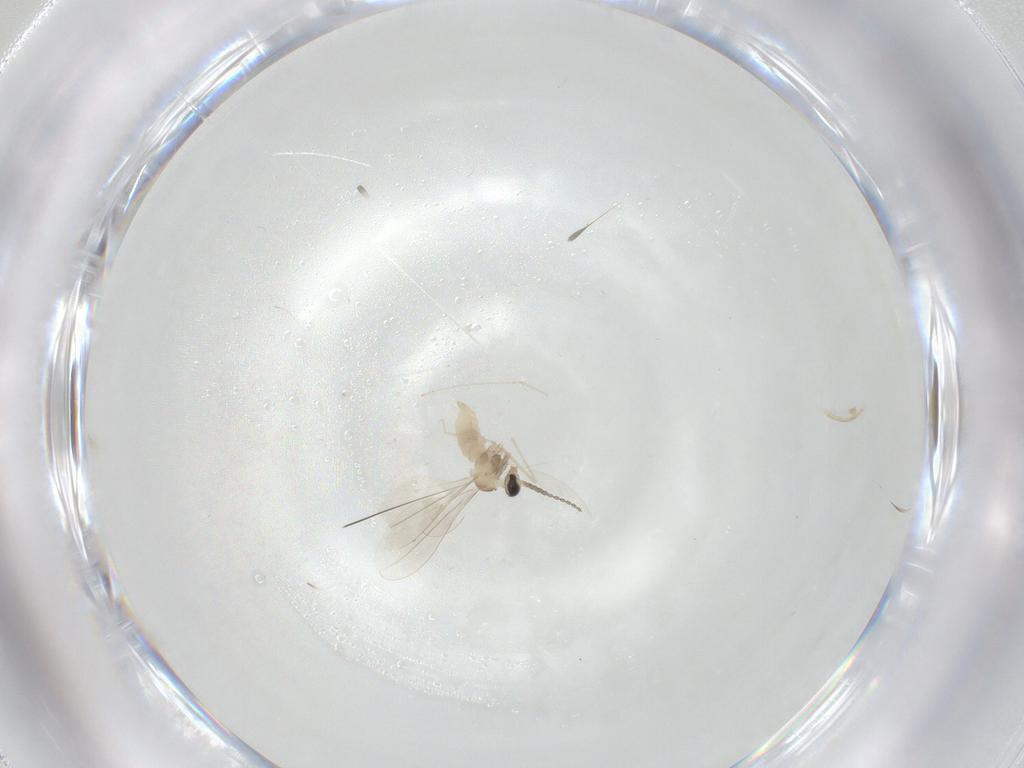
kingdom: Animalia
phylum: Arthropoda
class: Insecta
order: Diptera
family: Cecidomyiidae
